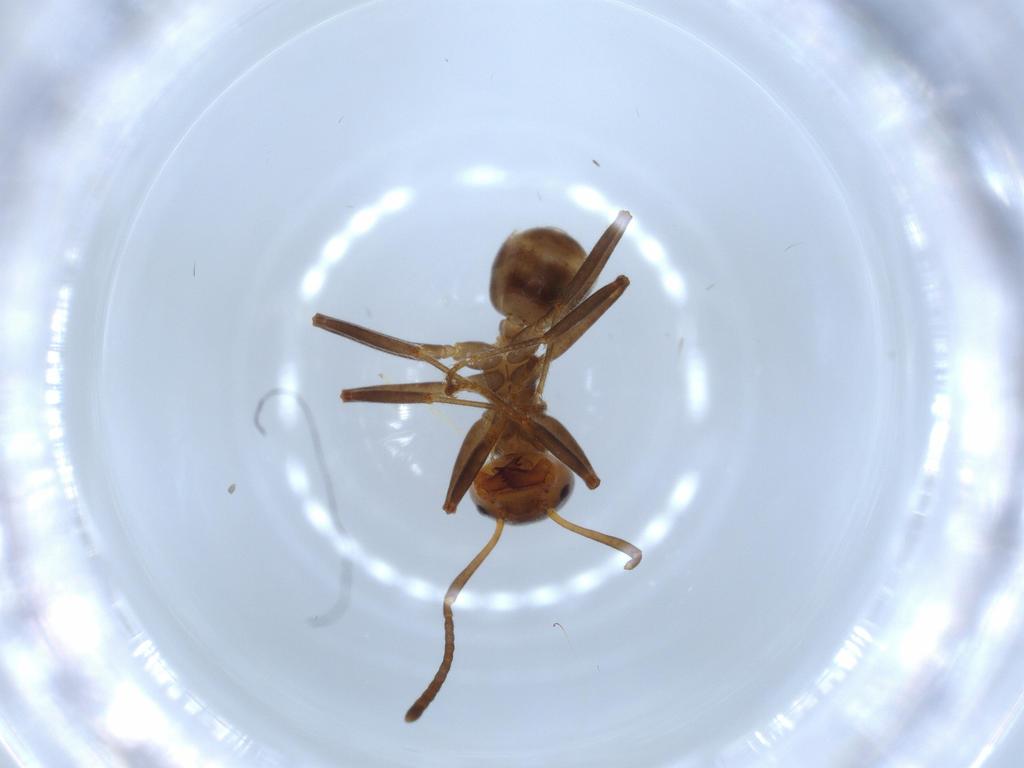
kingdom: Animalia
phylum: Arthropoda
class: Insecta
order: Hymenoptera
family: Formicidae
